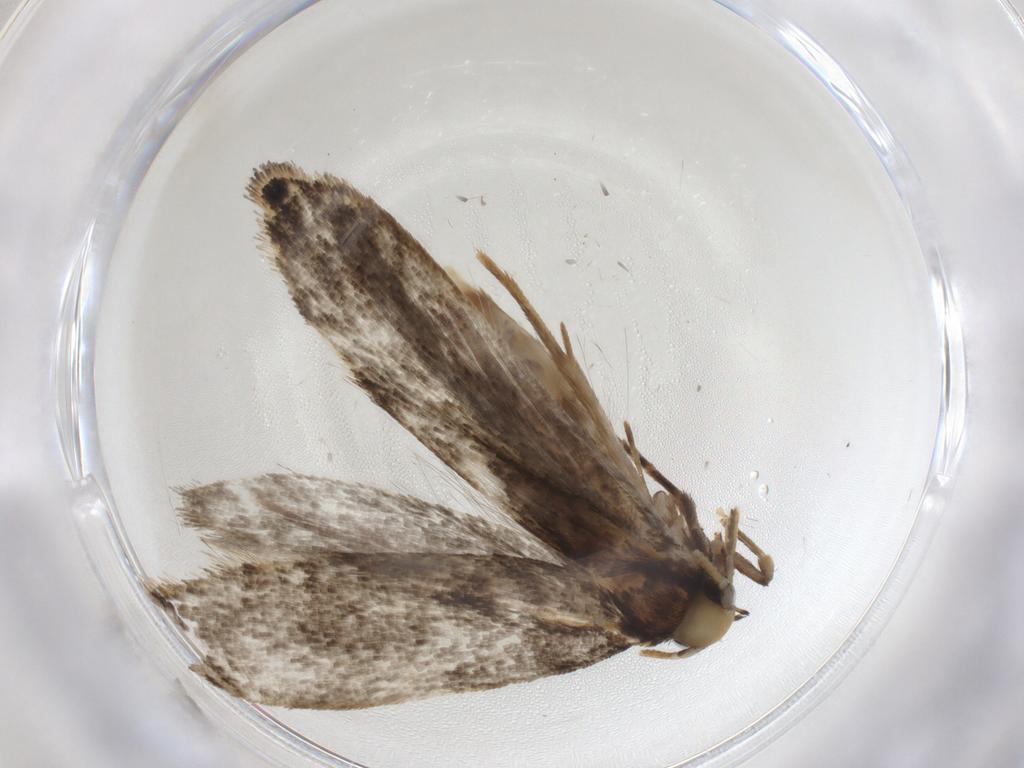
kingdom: Animalia
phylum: Arthropoda
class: Insecta
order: Lepidoptera
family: Tineidae
